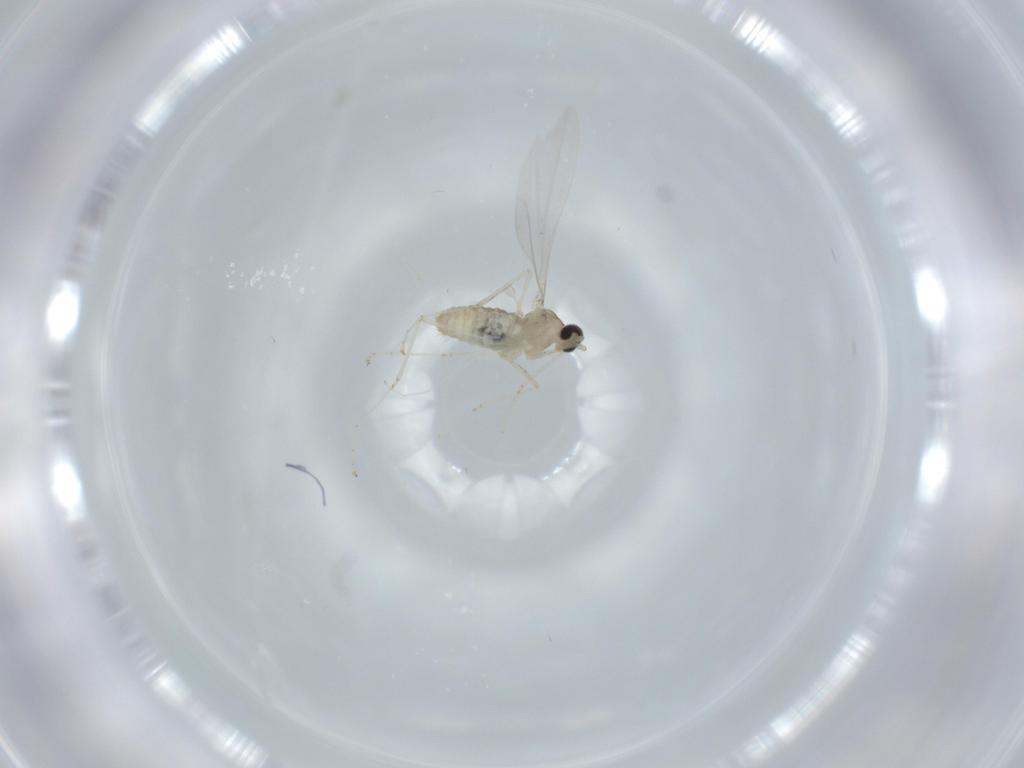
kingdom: Animalia
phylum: Arthropoda
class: Insecta
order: Diptera
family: Cecidomyiidae
